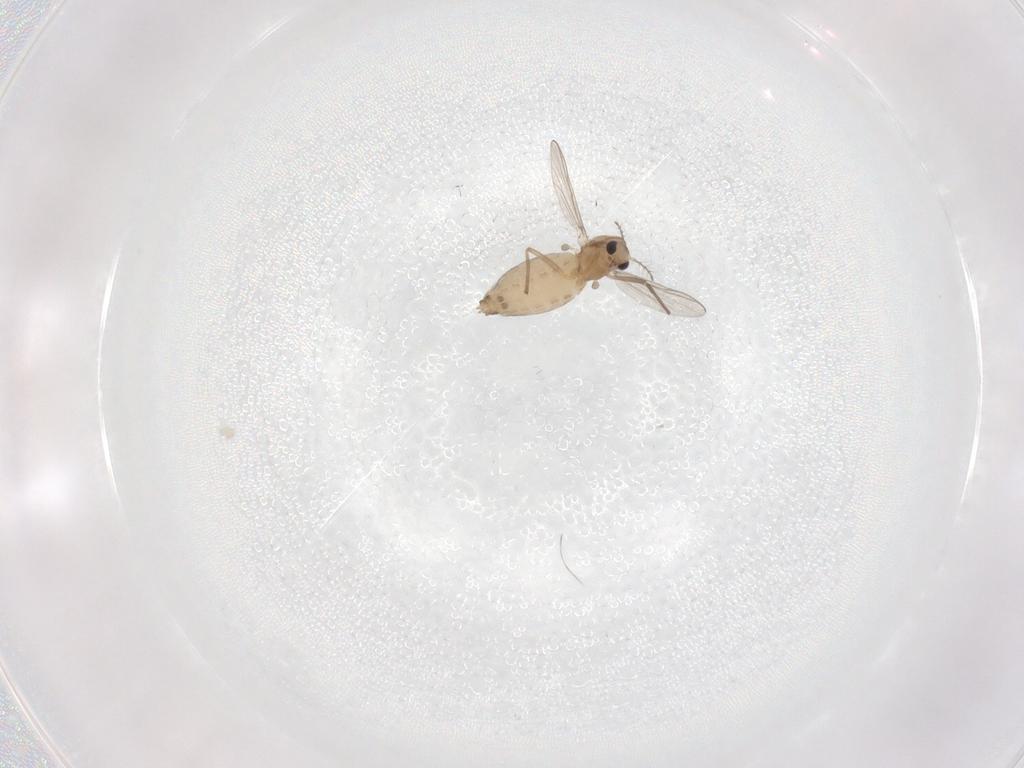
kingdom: Animalia
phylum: Arthropoda
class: Insecta
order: Diptera
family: Chironomidae
